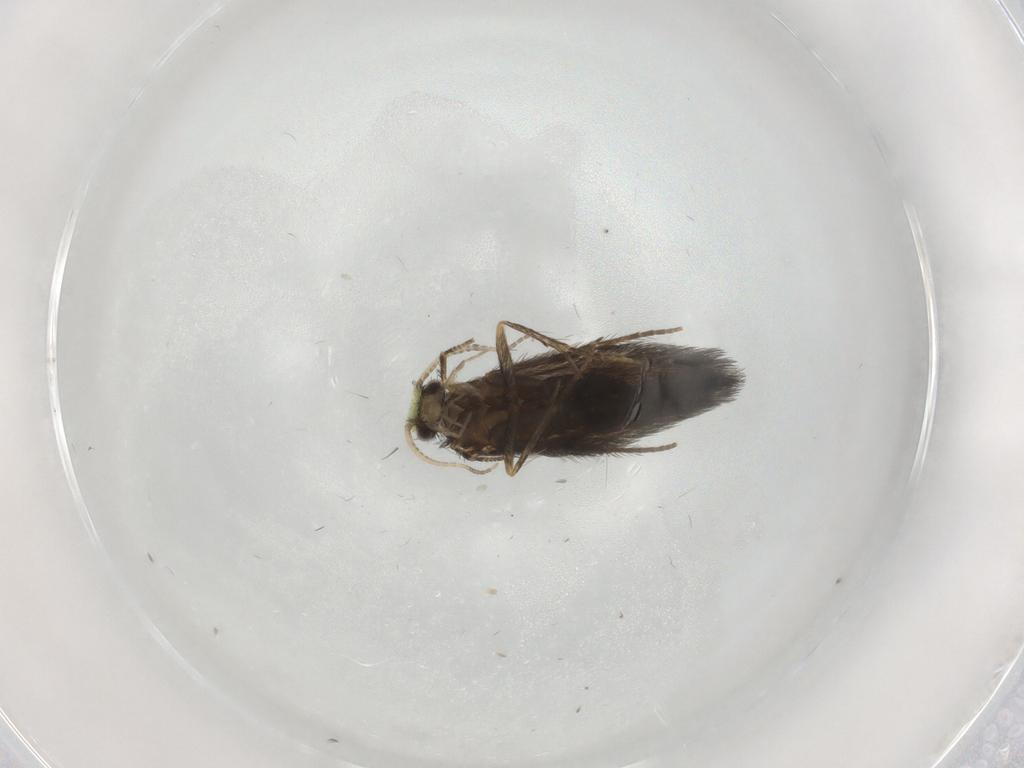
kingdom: Animalia
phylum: Arthropoda
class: Insecta
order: Trichoptera
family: Hydroptilidae
